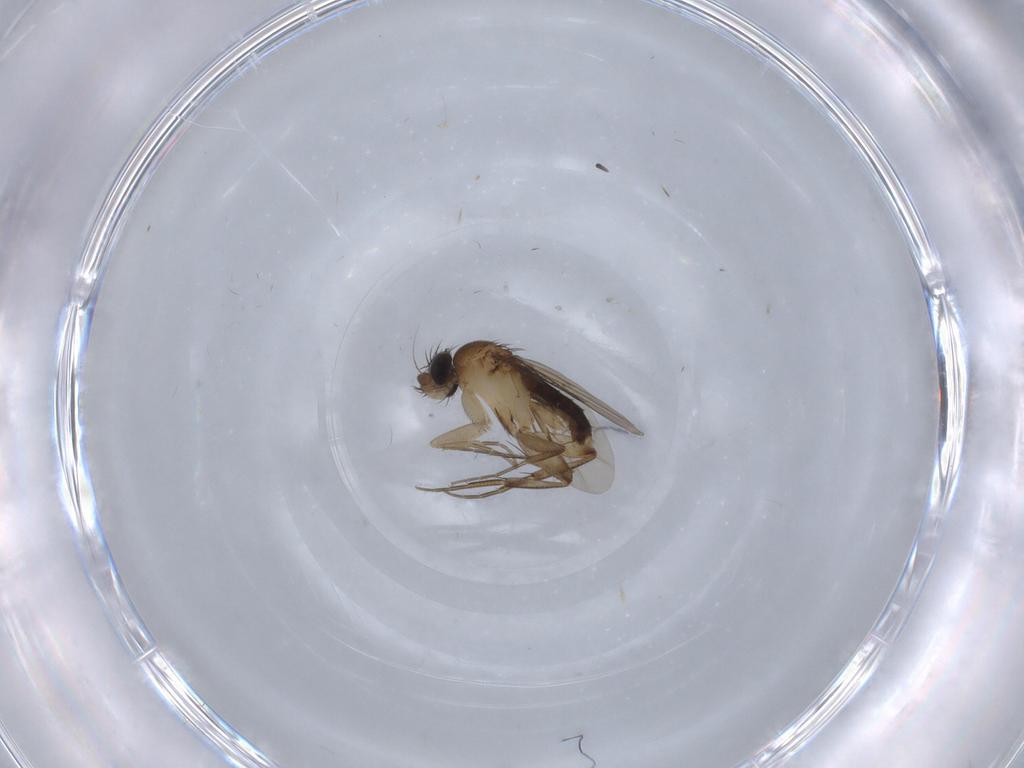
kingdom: Animalia
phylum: Arthropoda
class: Insecta
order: Diptera
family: Phoridae
